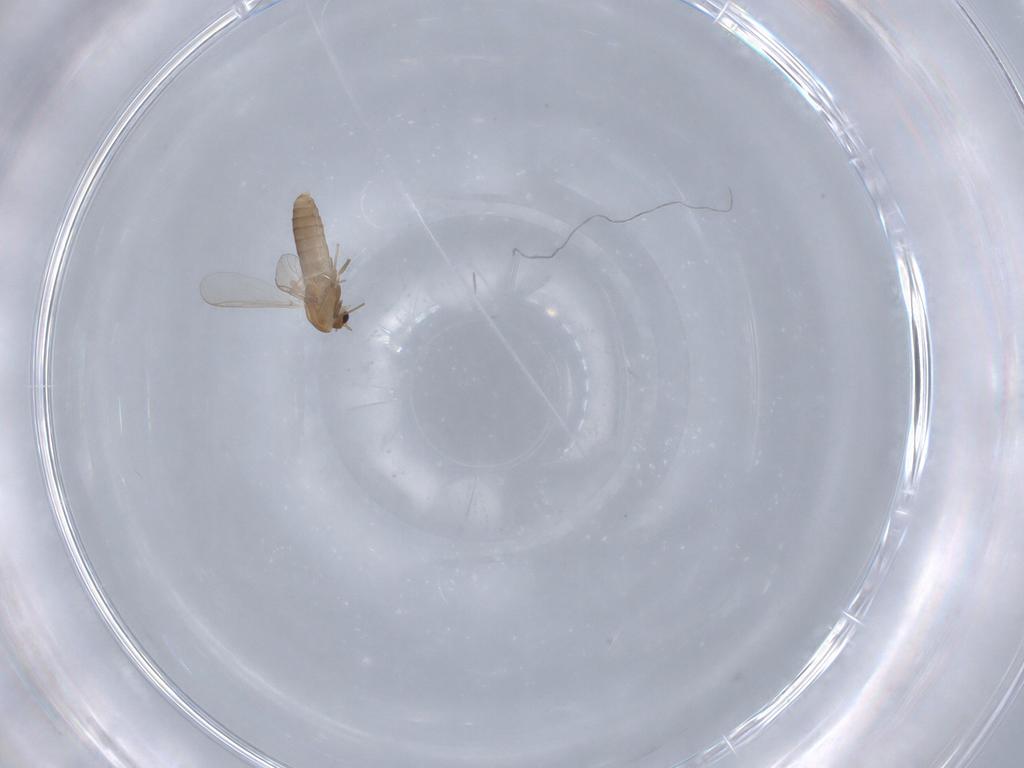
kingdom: Animalia
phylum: Arthropoda
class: Insecta
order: Diptera
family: Chironomidae
